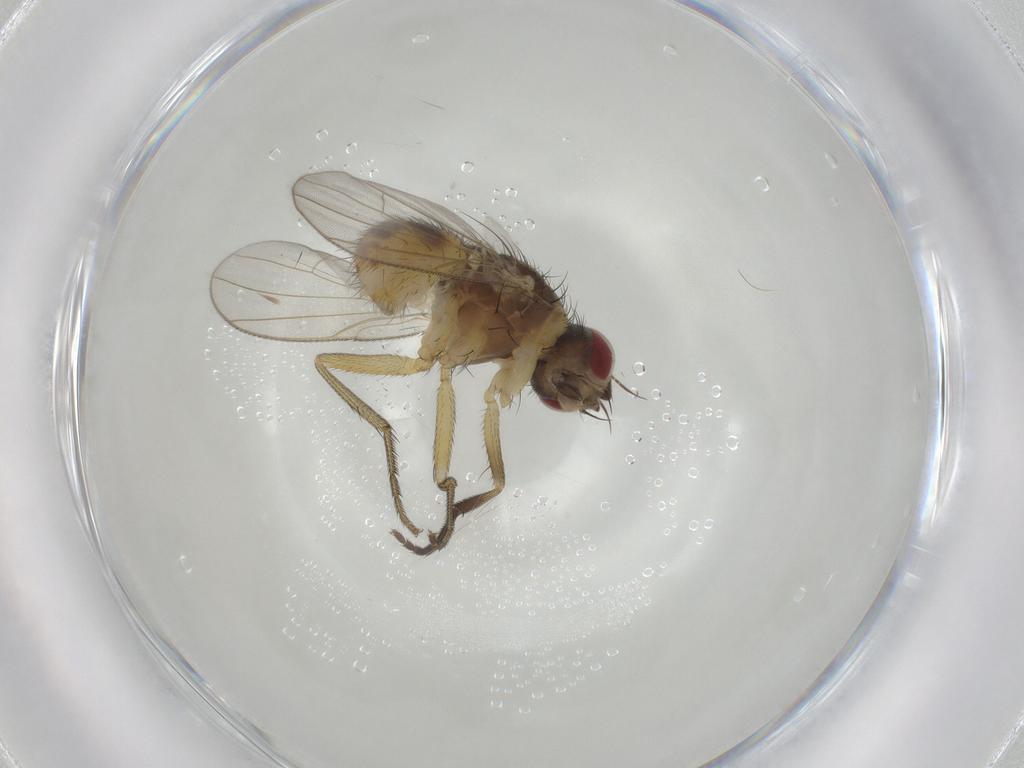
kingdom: Animalia
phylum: Arthropoda
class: Insecta
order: Diptera
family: Muscidae
